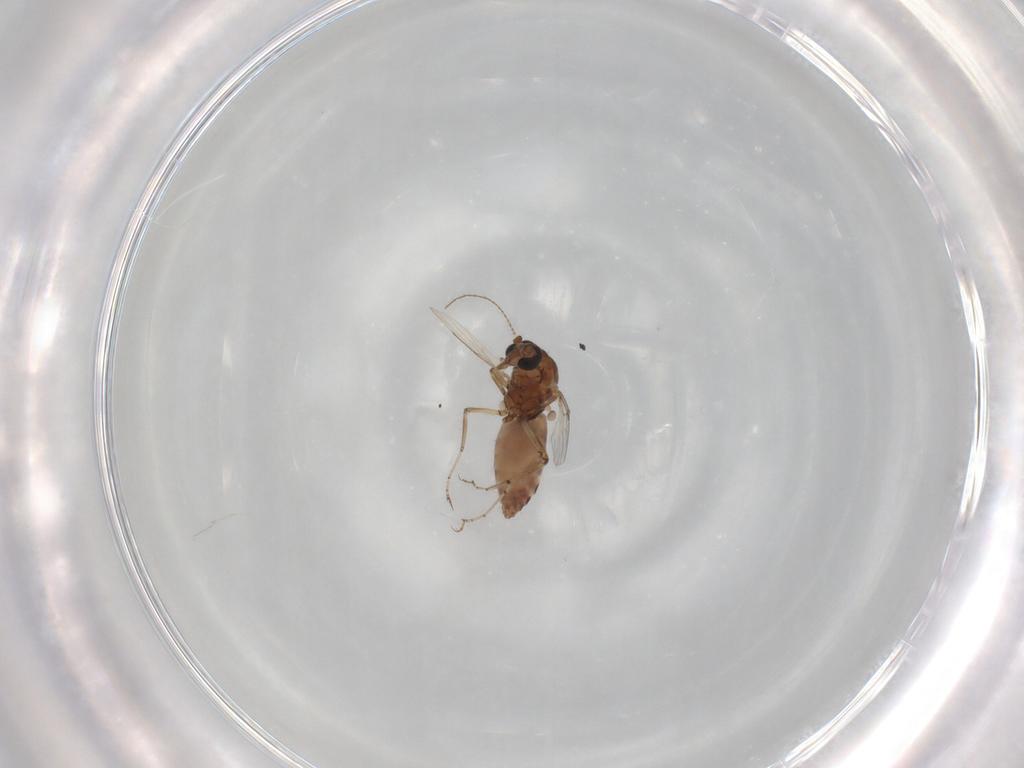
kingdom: Animalia
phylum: Arthropoda
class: Insecta
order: Diptera
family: Ceratopogonidae
